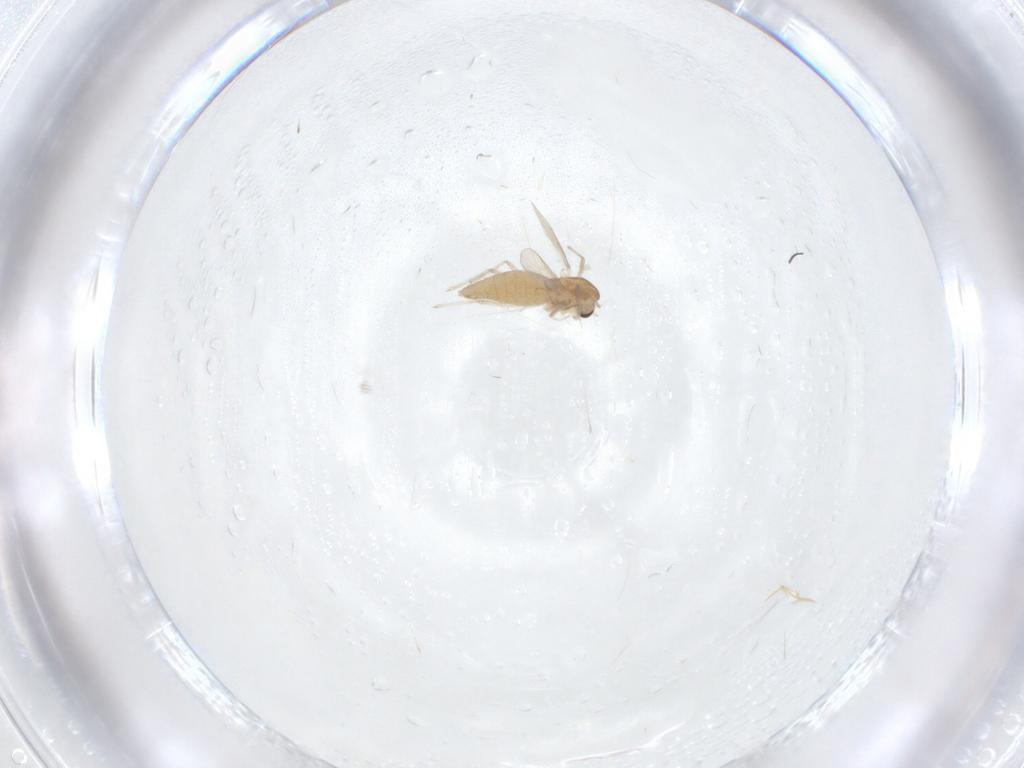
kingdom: Animalia
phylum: Arthropoda
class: Insecta
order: Diptera
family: Chironomidae
